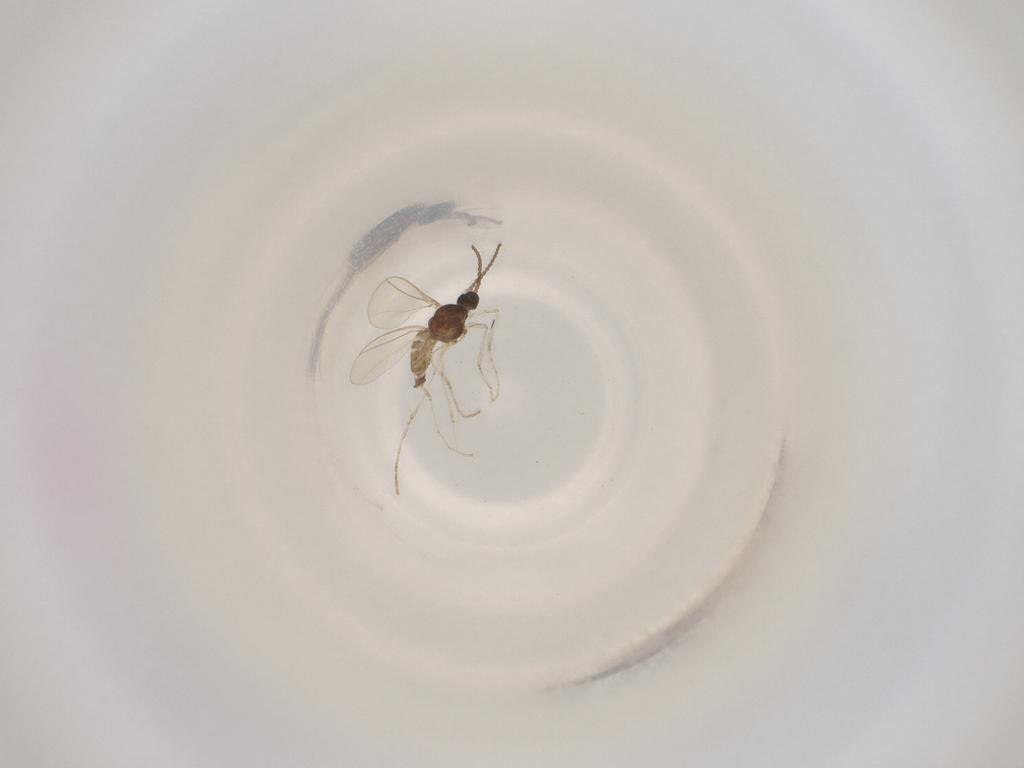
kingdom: Animalia
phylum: Arthropoda
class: Insecta
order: Diptera
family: Cecidomyiidae
